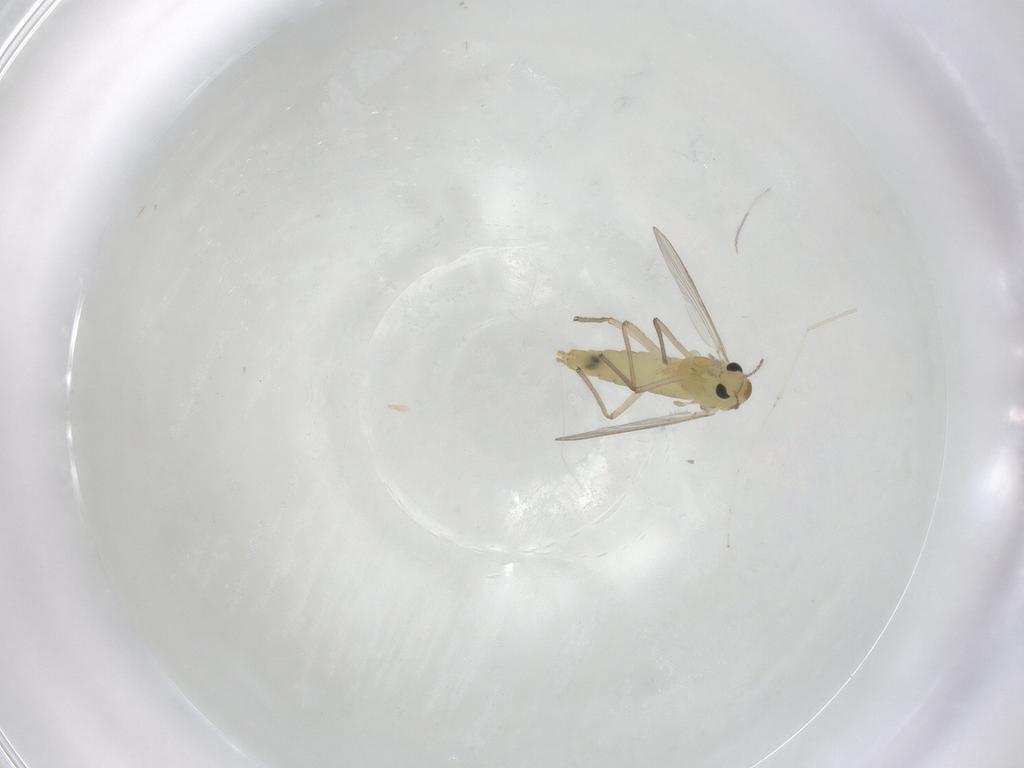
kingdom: Animalia
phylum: Arthropoda
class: Insecta
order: Diptera
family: Chironomidae
